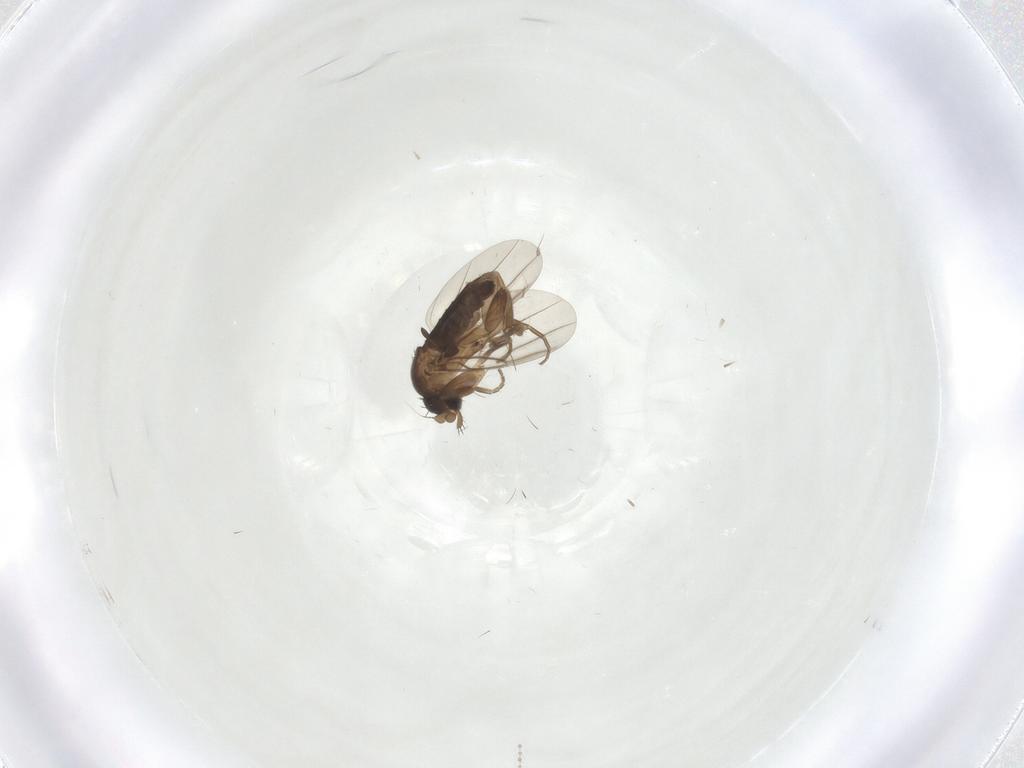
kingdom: Animalia
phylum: Arthropoda
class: Insecta
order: Diptera
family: Phoridae
